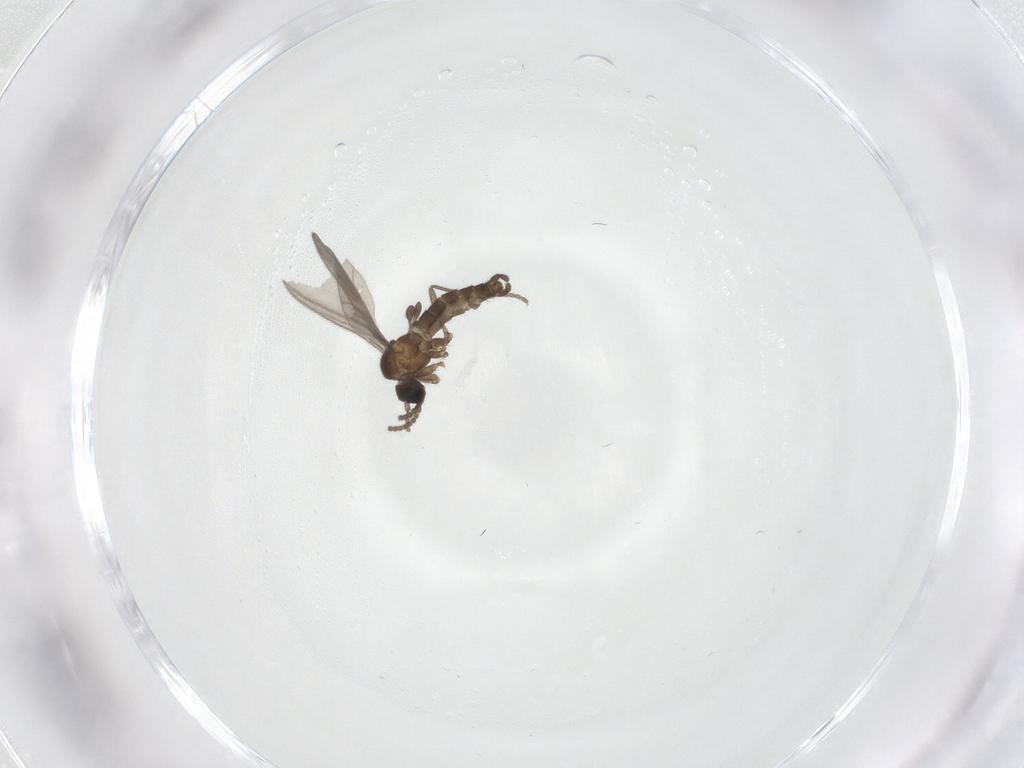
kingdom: Animalia
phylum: Arthropoda
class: Insecta
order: Diptera
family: Sciaridae
